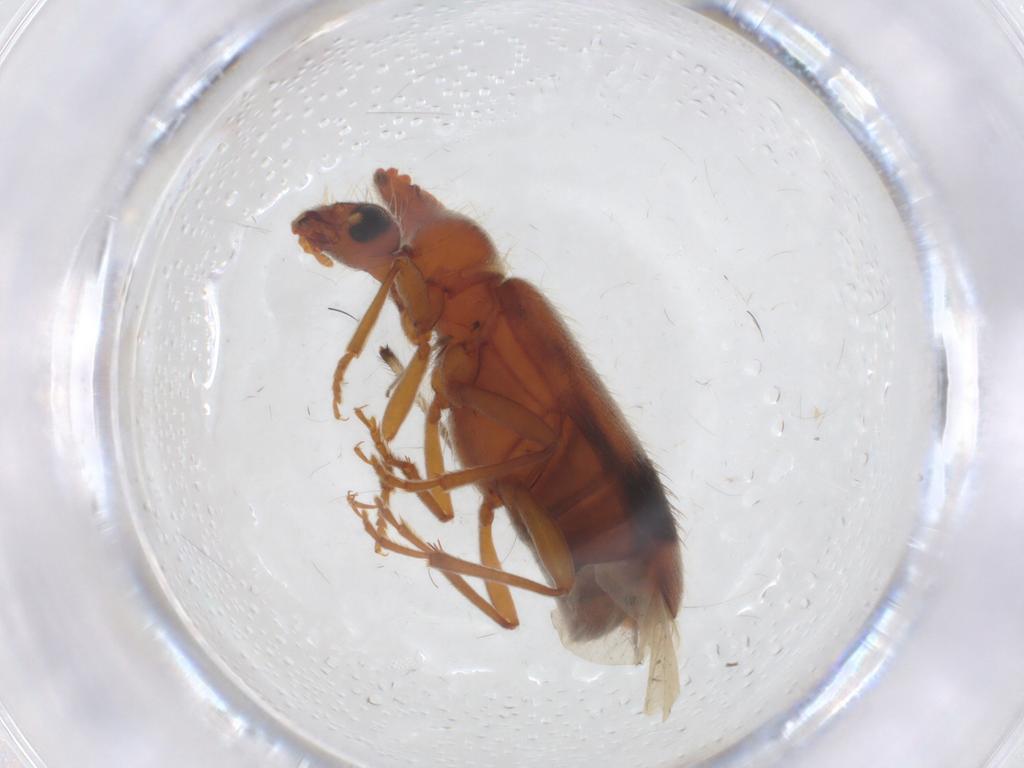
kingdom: Animalia
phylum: Arthropoda
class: Insecta
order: Coleoptera
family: Anthicidae
